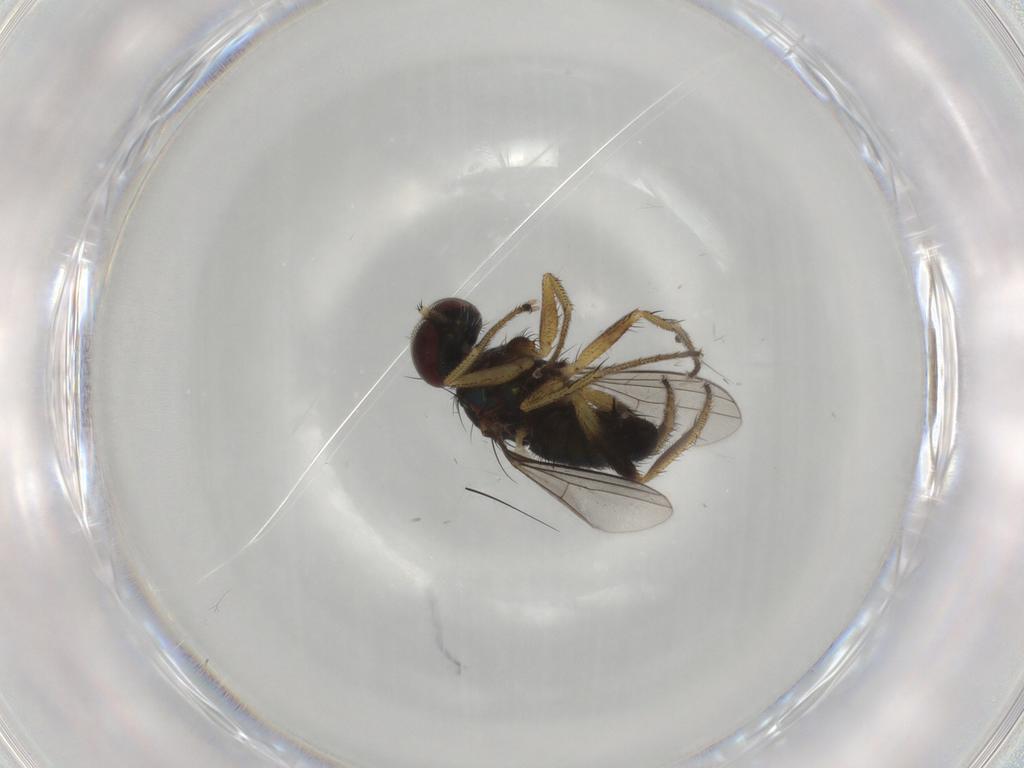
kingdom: Animalia
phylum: Arthropoda
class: Insecta
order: Diptera
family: Dolichopodidae
